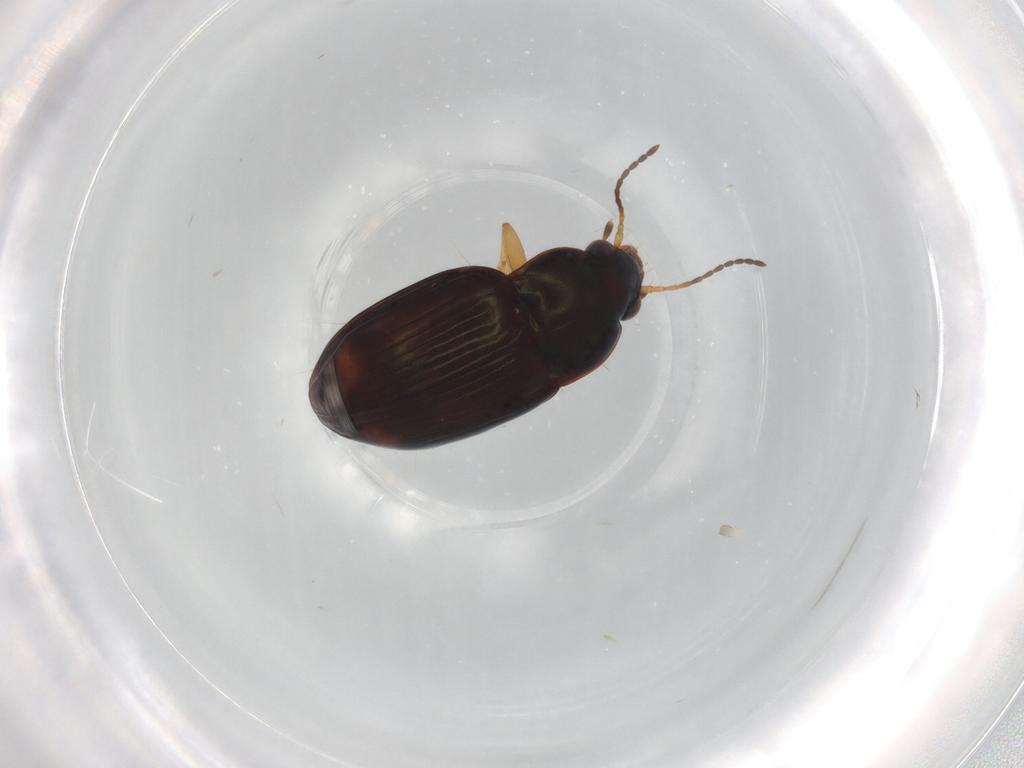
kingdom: Animalia
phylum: Arthropoda
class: Insecta
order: Coleoptera
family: Carabidae
